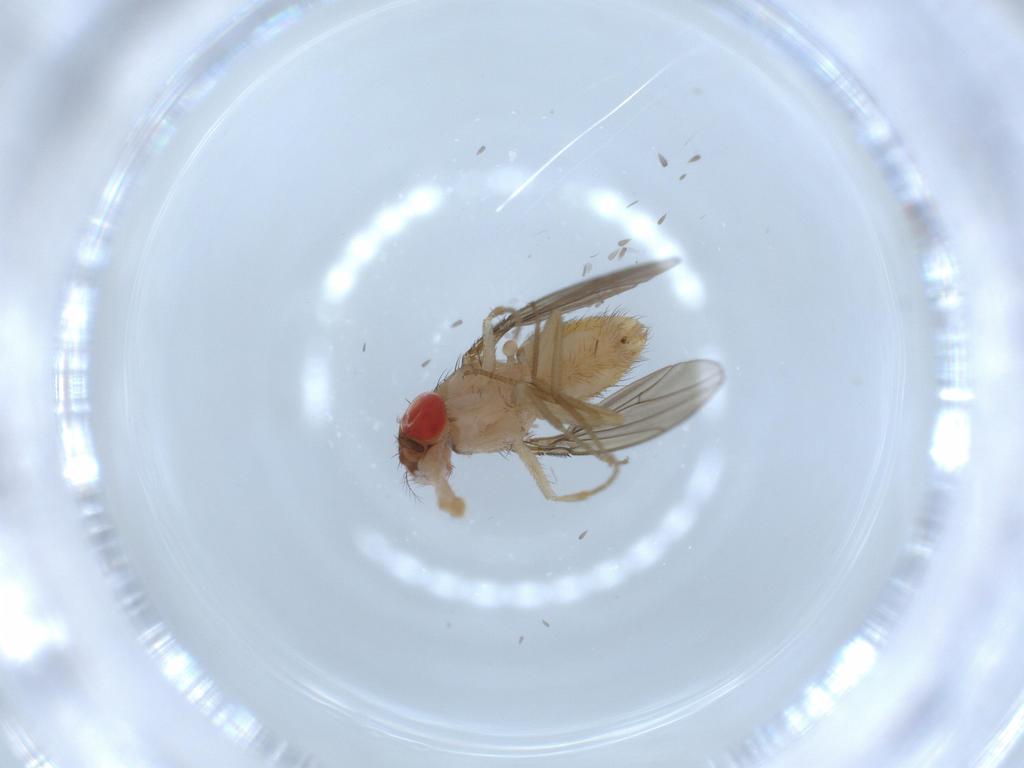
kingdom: Animalia
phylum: Arthropoda
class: Insecta
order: Diptera
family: Drosophilidae
